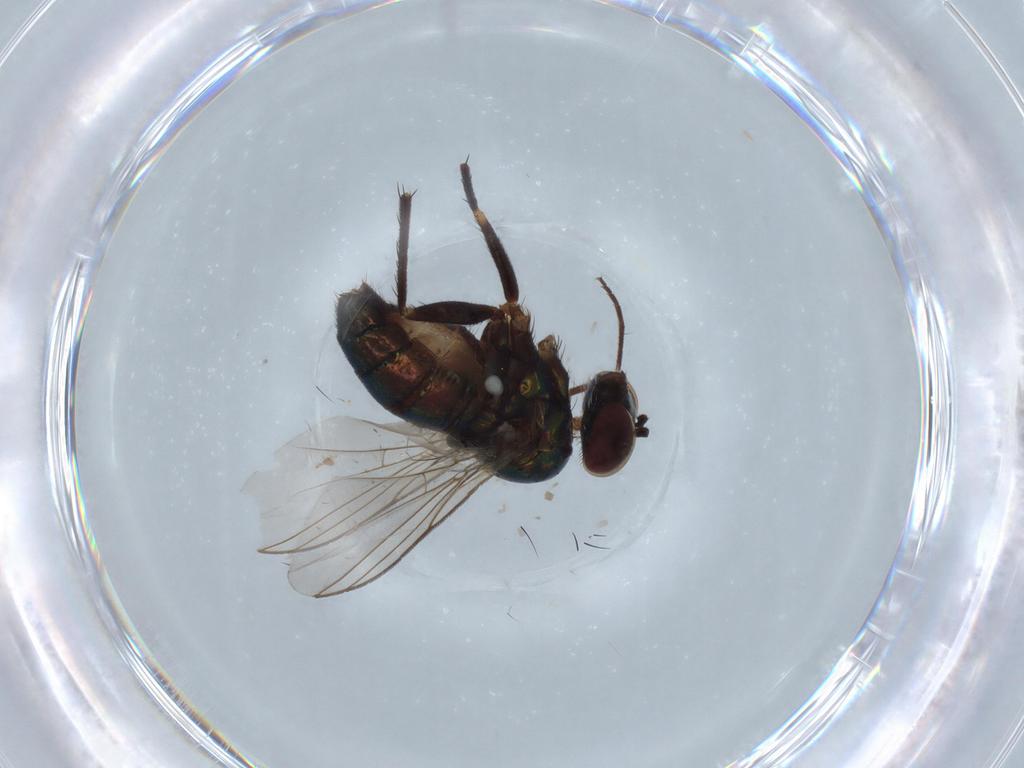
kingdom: Animalia
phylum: Arthropoda
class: Insecta
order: Diptera
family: Dolichopodidae
